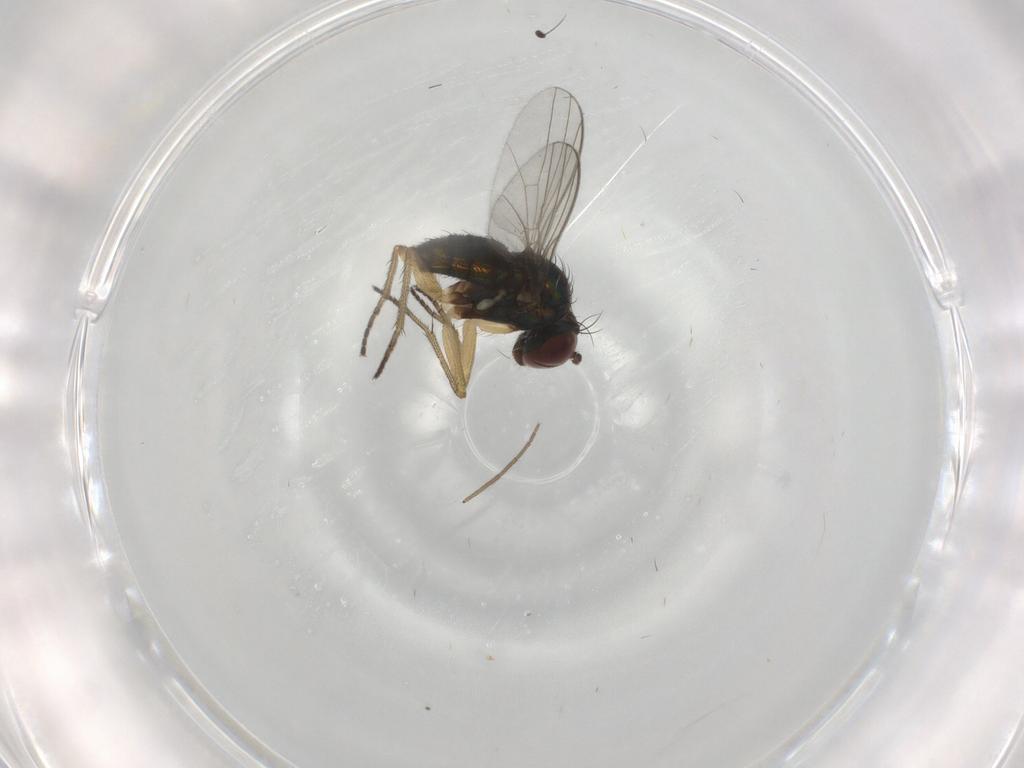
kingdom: Animalia
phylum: Arthropoda
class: Insecta
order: Diptera
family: Chironomidae
